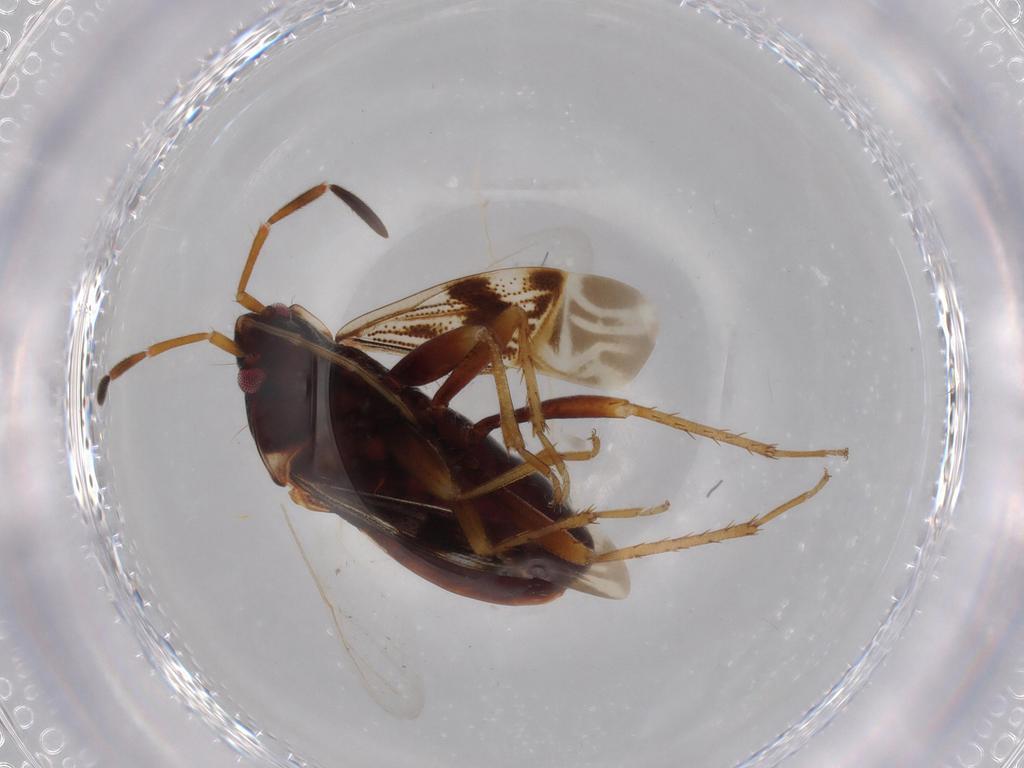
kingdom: Animalia
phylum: Arthropoda
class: Insecta
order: Hemiptera
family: Rhyparochromidae
